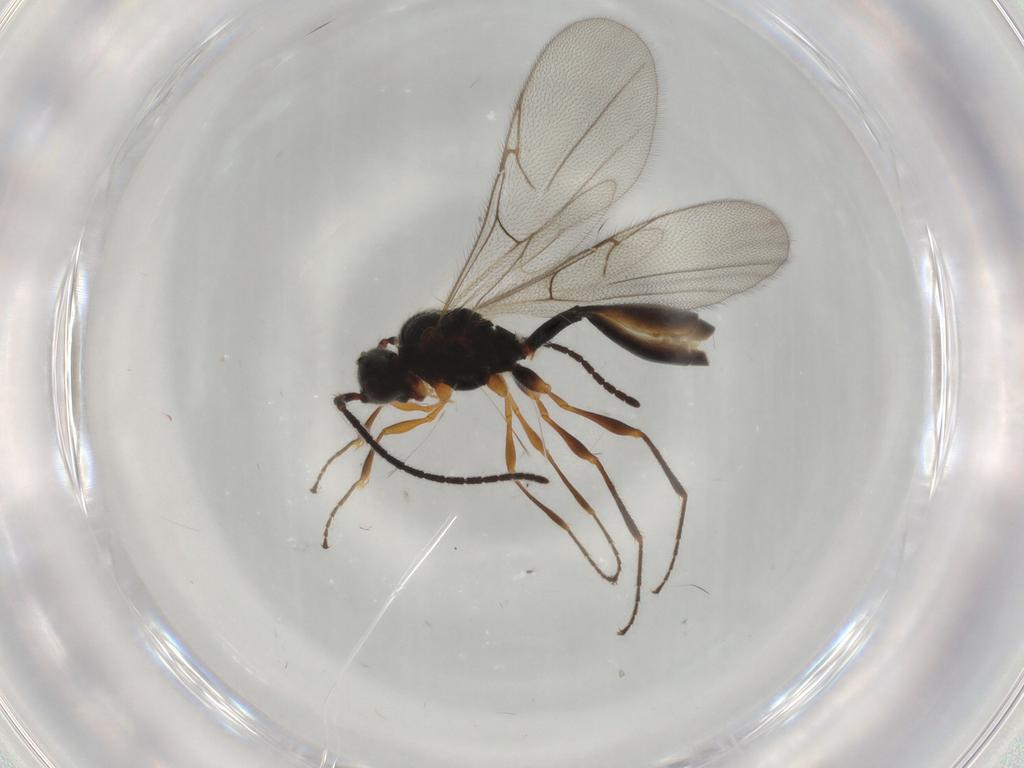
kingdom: Animalia
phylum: Arthropoda
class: Insecta
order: Hymenoptera
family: Diapriidae
